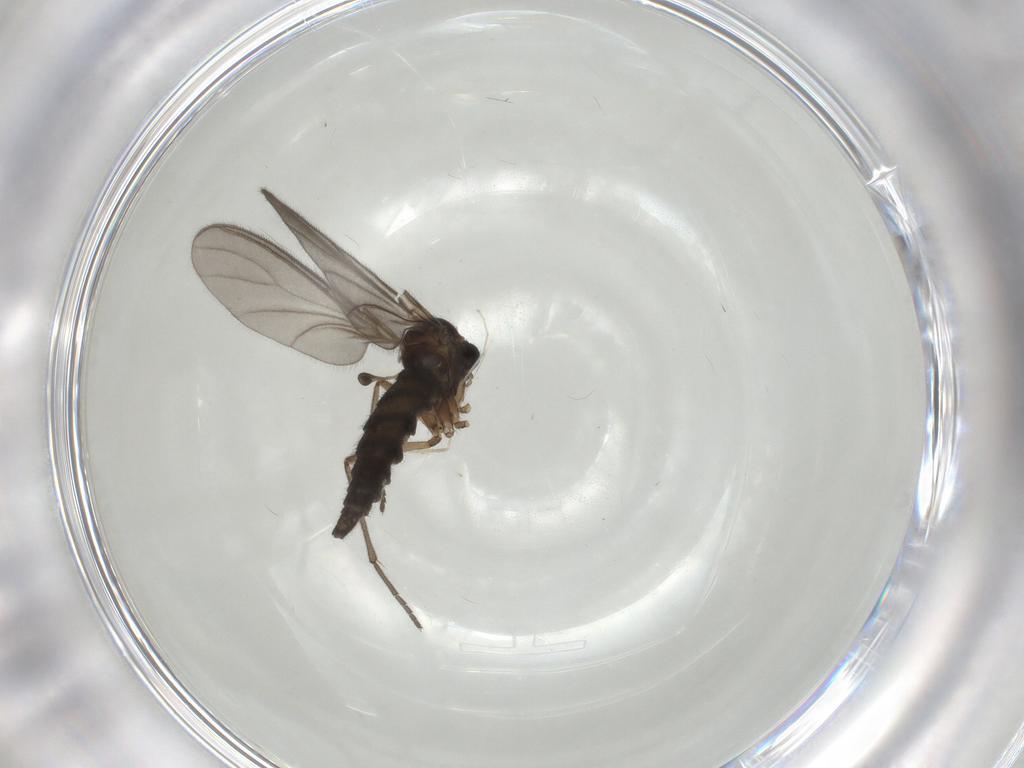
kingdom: Animalia
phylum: Arthropoda
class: Insecta
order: Diptera
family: Sciaridae
